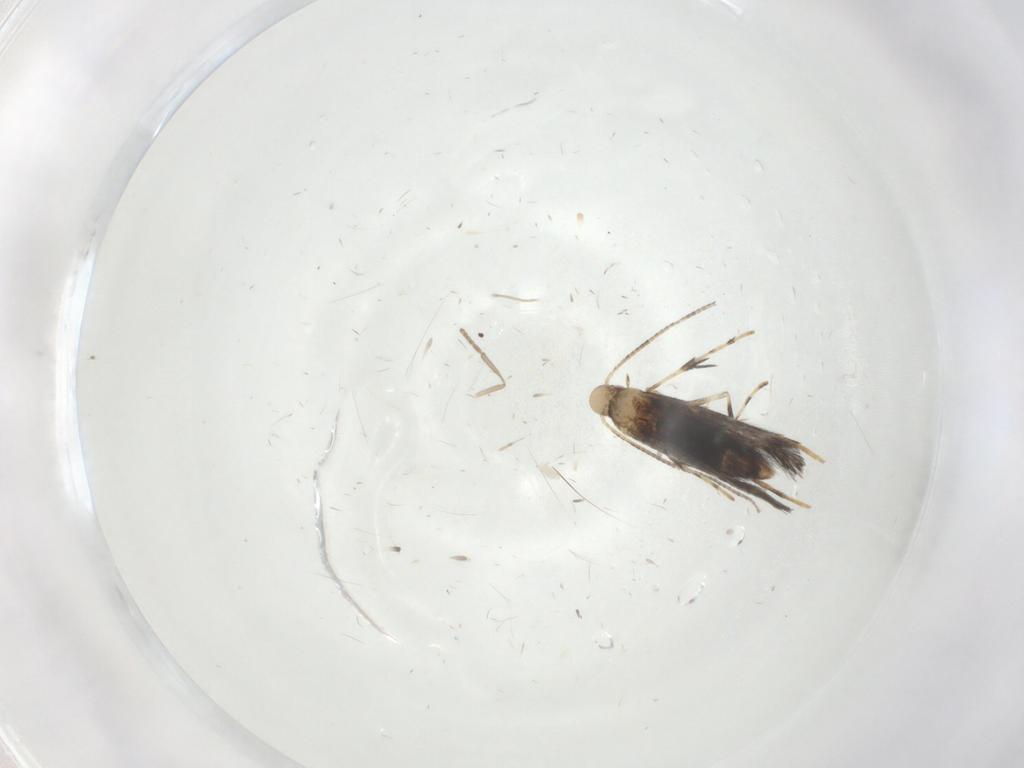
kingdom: Animalia
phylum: Arthropoda
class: Insecta
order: Lepidoptera
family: Gracillariidae
